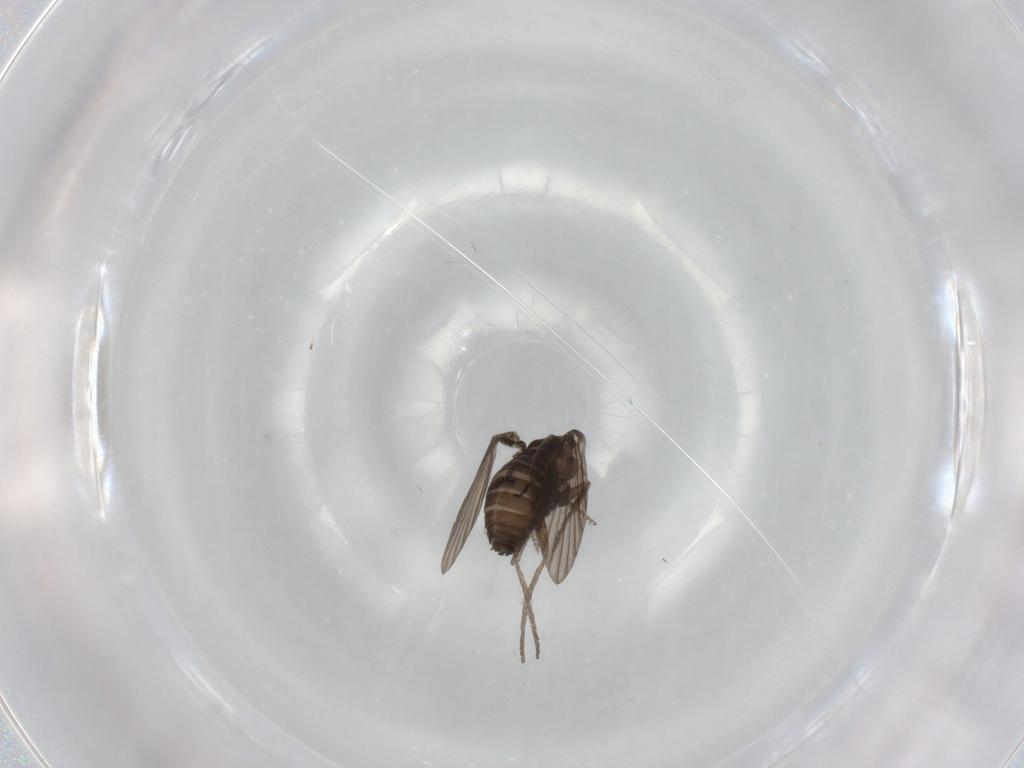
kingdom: Animalia
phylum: Arthropoda
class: Insecta
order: Diptera
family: Psychodidae
